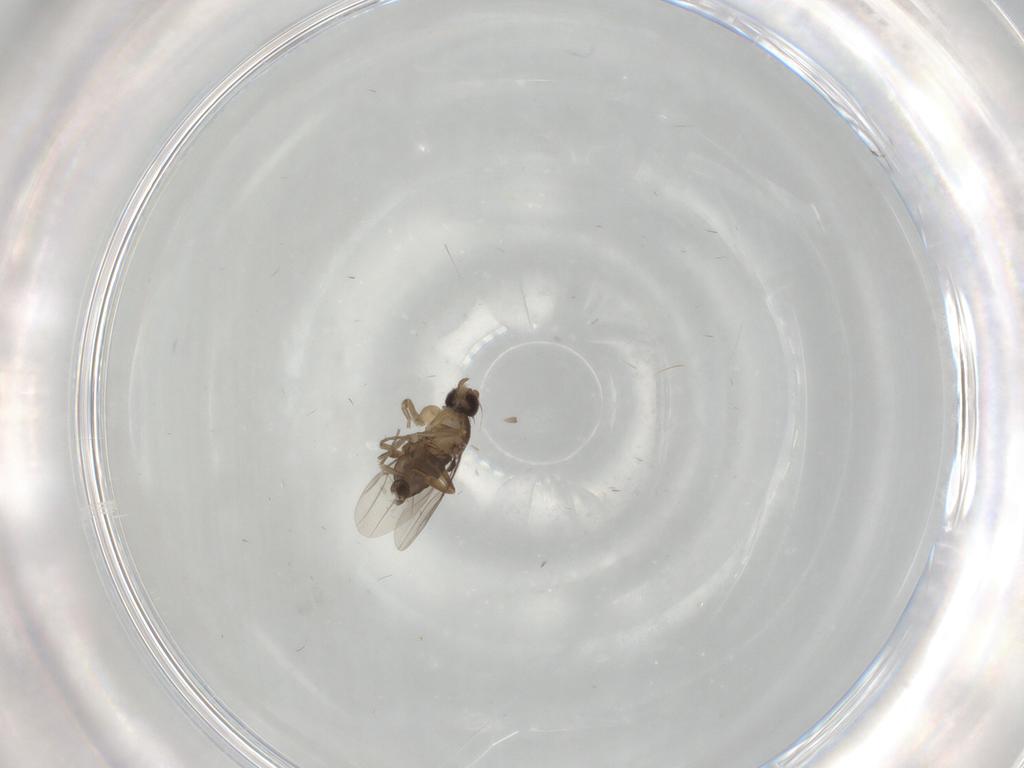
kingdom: Animalia
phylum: Arthropoda
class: Insecta
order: Diptera
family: Phoridae
